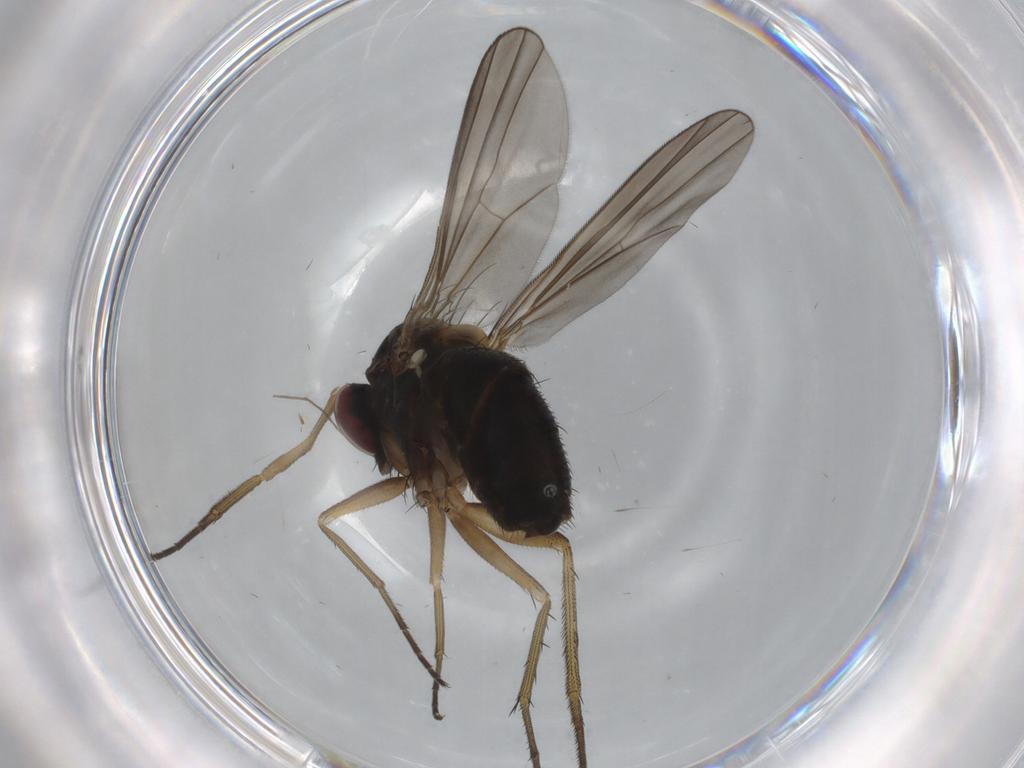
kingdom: Animalia
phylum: Arthropoda
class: Insecta
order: Diptera
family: Dolichopodidae
